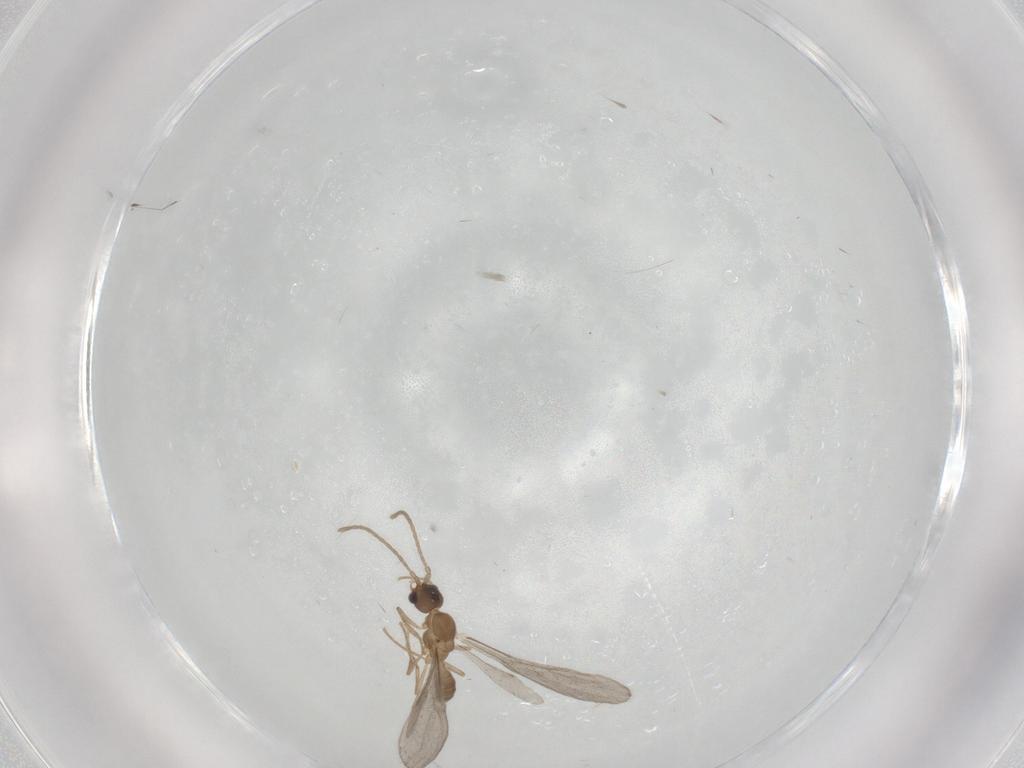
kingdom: Animalia
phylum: Arthropoda
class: Insecta
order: Hymenoptera
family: Formicidae
